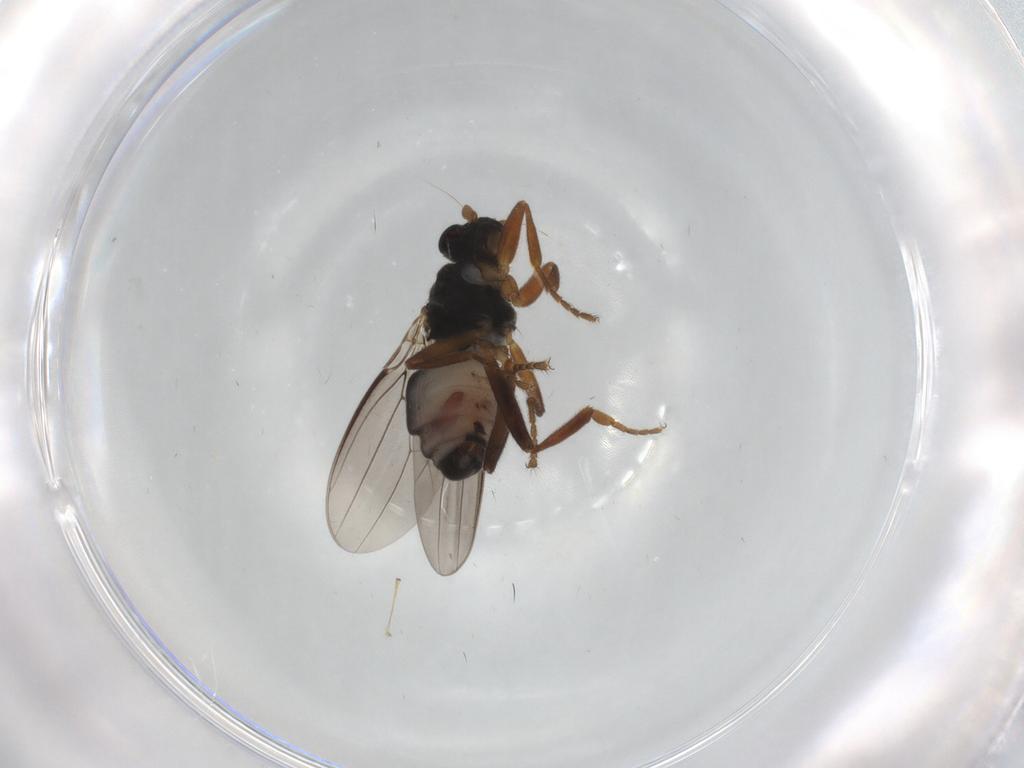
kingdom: Animalia
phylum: Arthropoda
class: Insecta
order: Diptera
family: Sphaeroceridae
